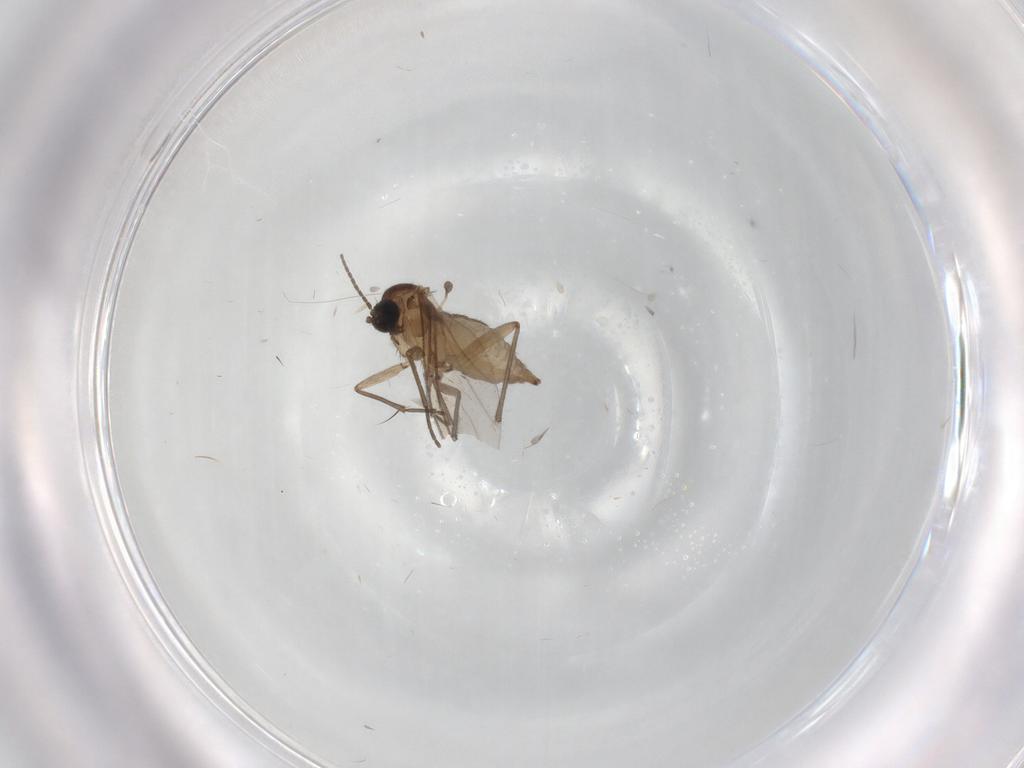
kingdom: Animalia
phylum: Arthropoda
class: Insecta
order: Diptera
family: Sciaridae
